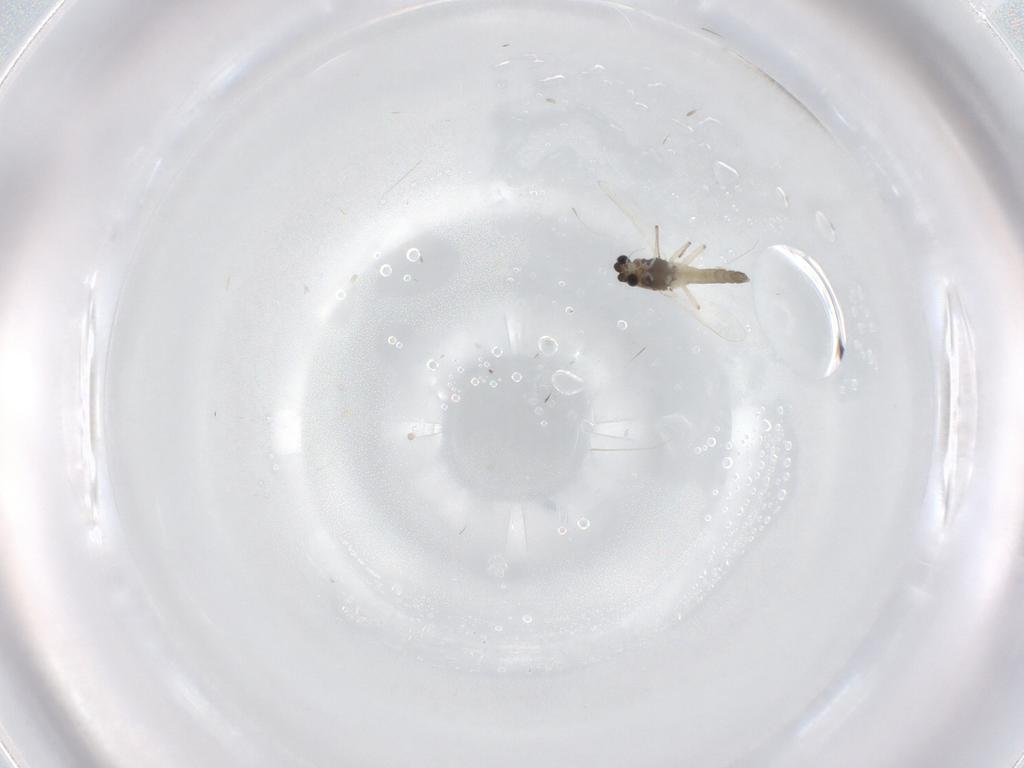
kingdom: Animalia
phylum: Arthropoda
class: Insecta
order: Diptera
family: Chironomidae
